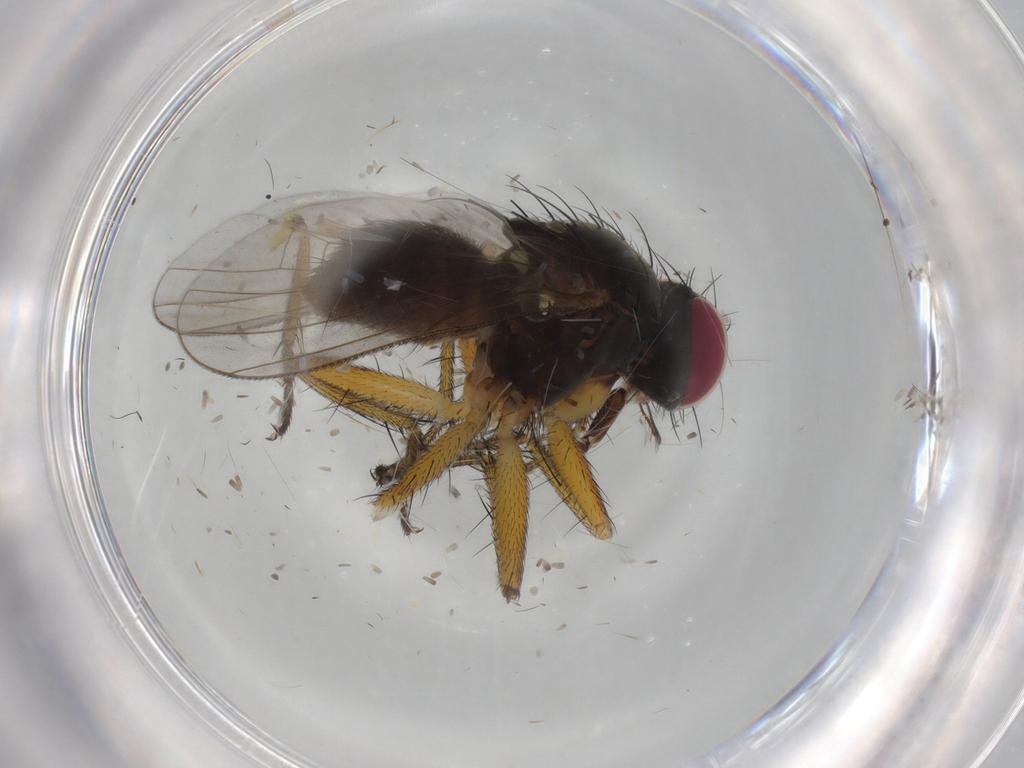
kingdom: Animalia
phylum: Arthropoda
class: Insecta
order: Diptera
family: Muscidae
